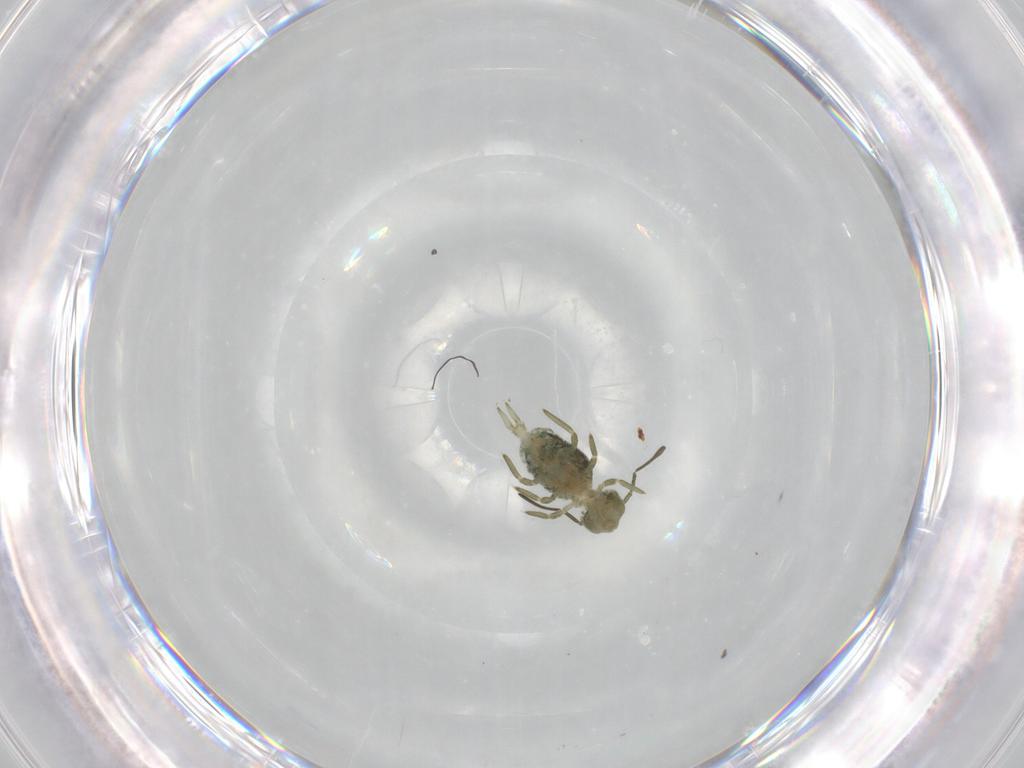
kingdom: Animalia
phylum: Arthropoda
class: Collembola
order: Symphypleona
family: Sminthuridae
